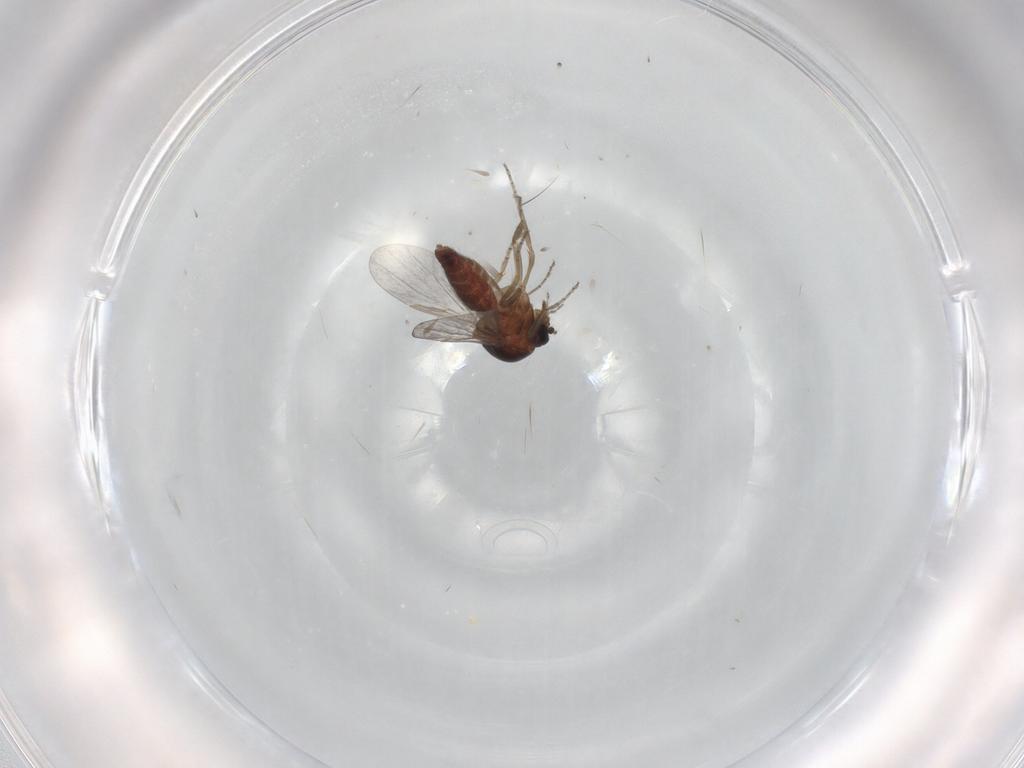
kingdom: Animalia
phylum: Arthropoda
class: Insecta
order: Diptera
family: Ceratopogonidae
